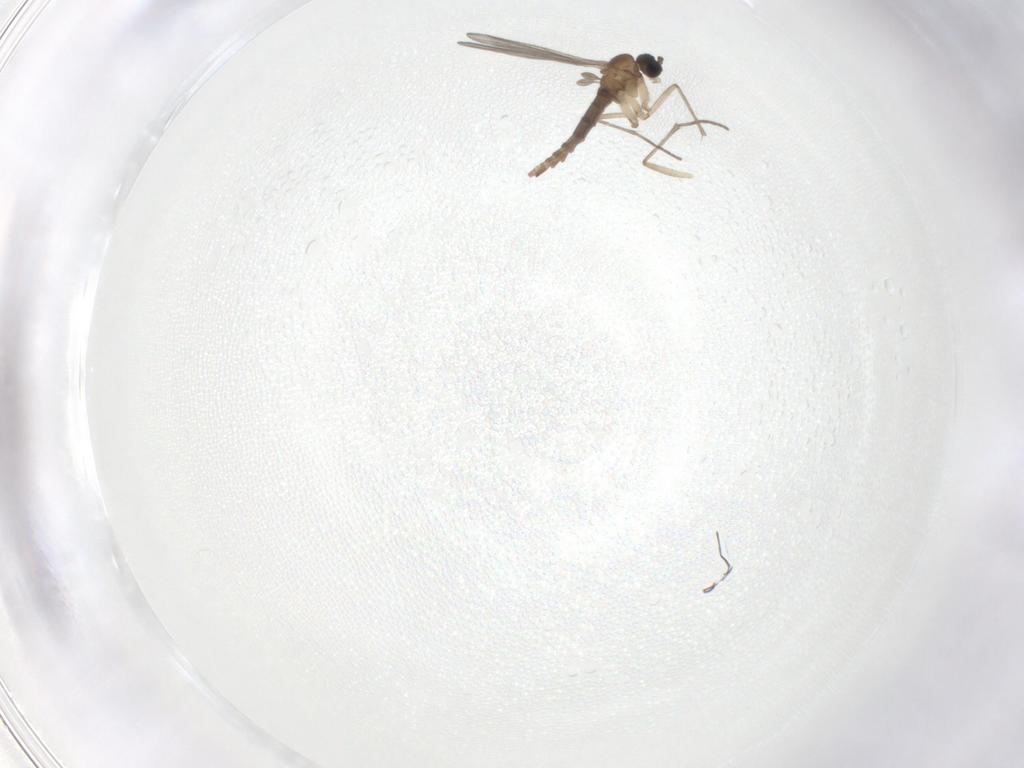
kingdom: Animalia
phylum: Arthropoda
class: Insecta
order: Diptera
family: Sciaridae
